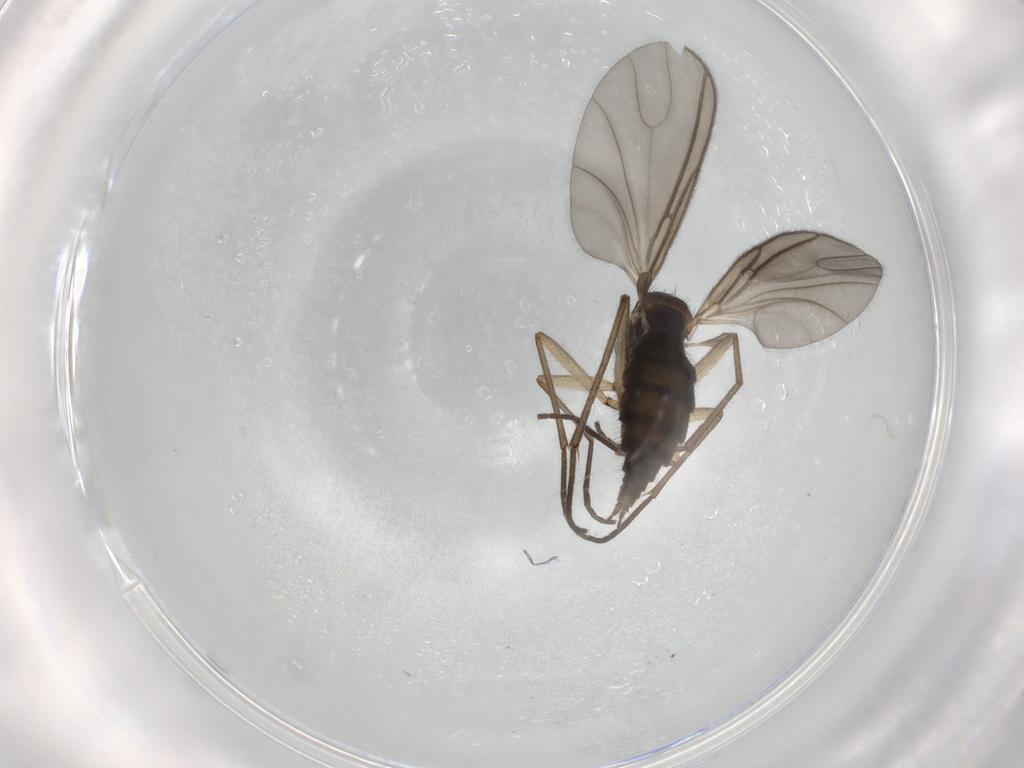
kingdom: Animalia
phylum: Arthropoda
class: Insecta
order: Diptera
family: Sciaridae
